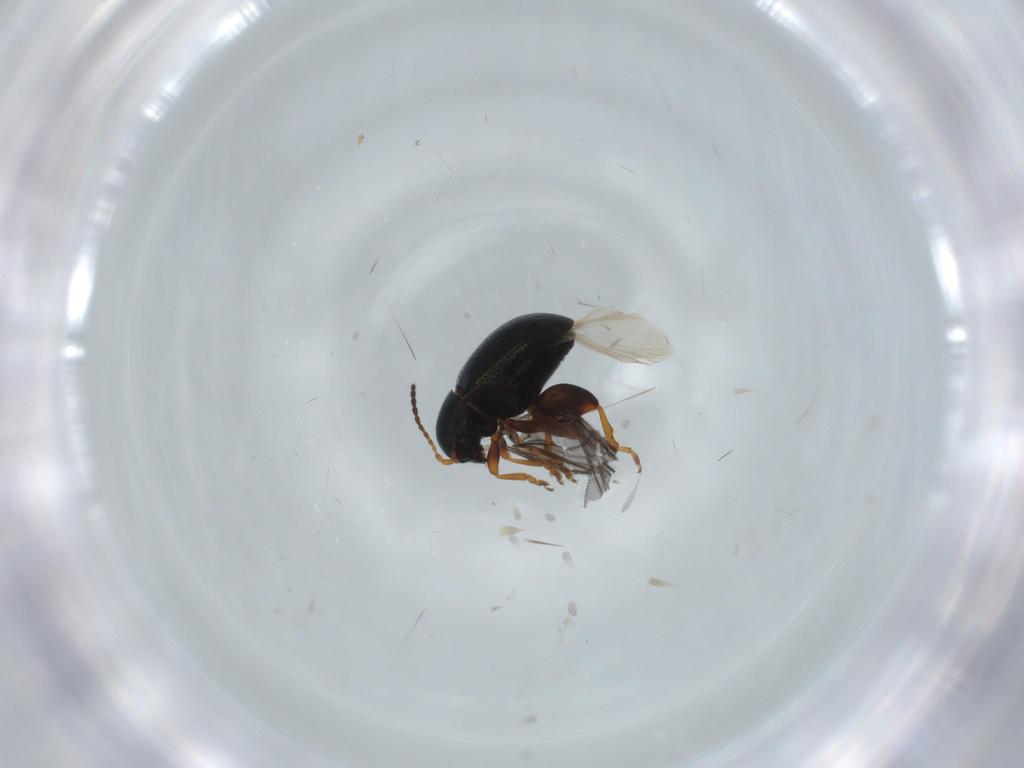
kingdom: Animalia
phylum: Arthropoda
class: Insecta
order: Coleoptera
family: Chrysomelidae
